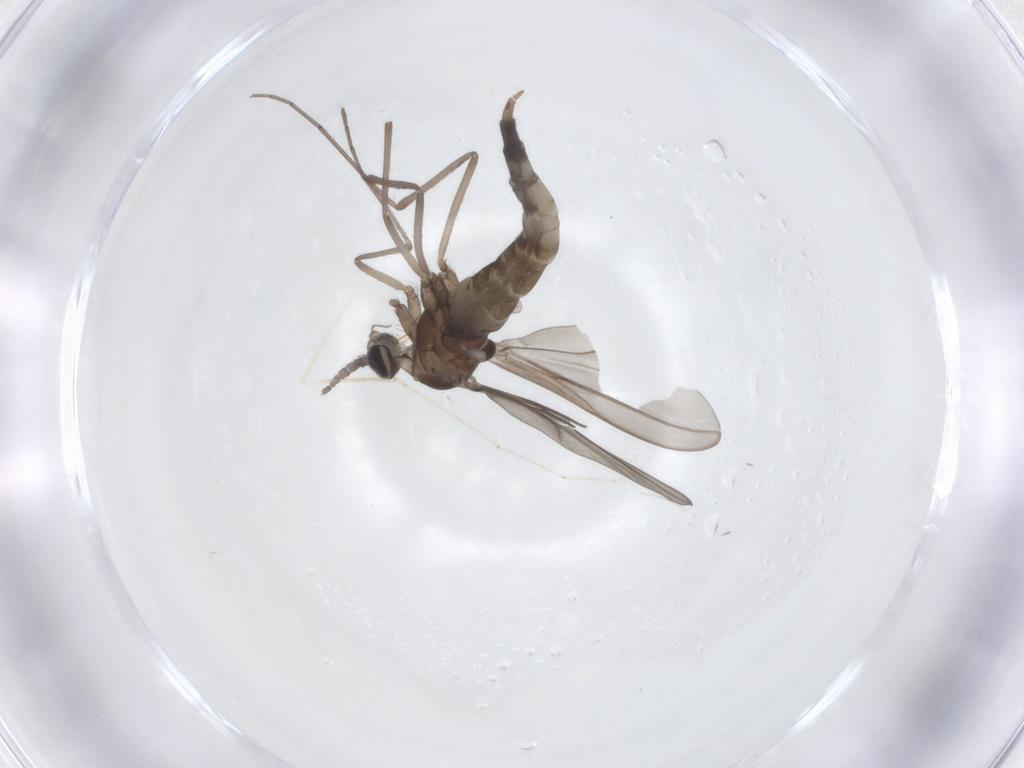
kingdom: Animalia
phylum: Arthropoda
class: Insecta
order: Diptera
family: Cecidomyiidae
